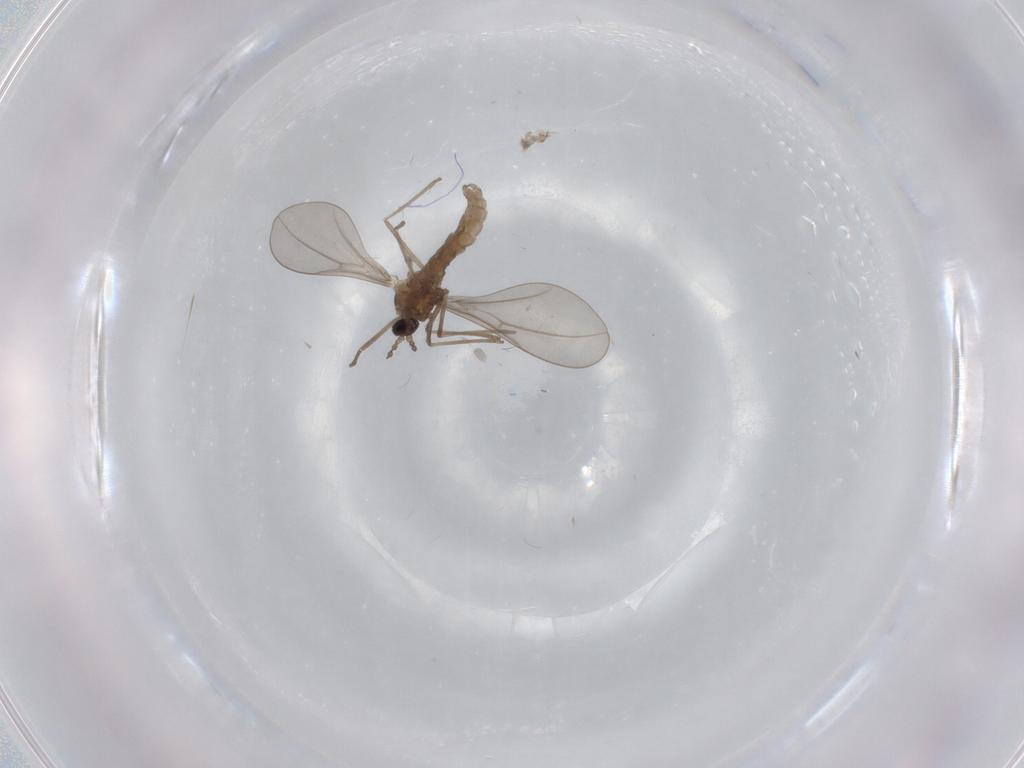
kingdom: Animalia
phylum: Arthropoda
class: Insecta
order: Diptera
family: Cecidomyiidae
